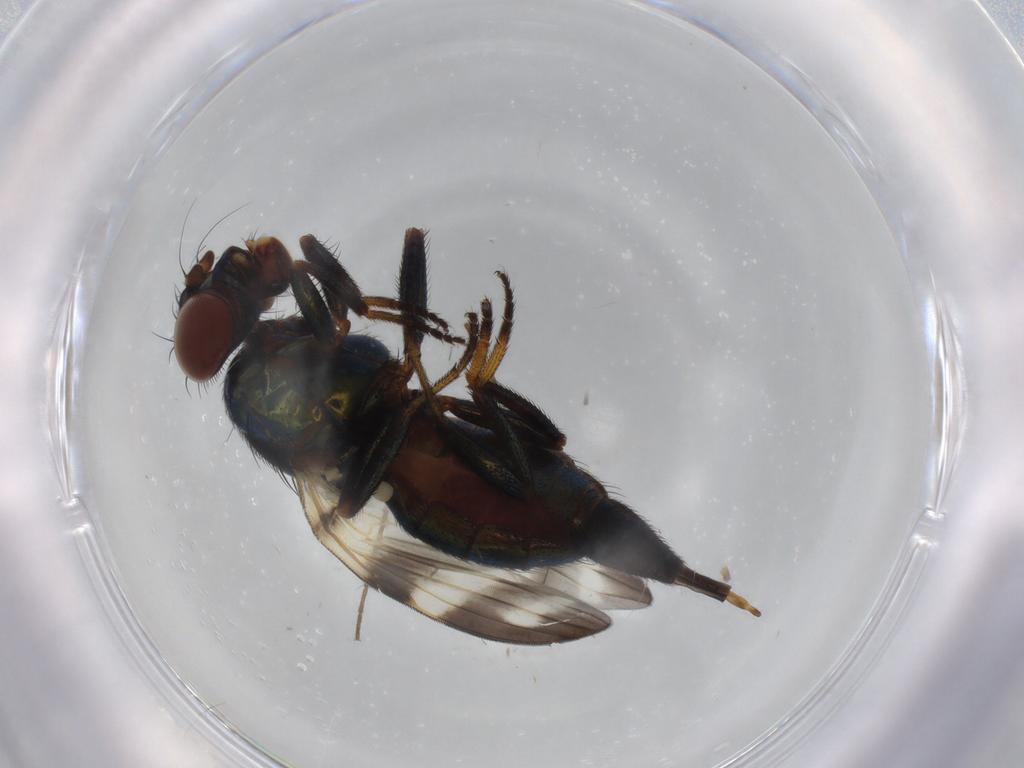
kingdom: Animalia
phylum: Arthropoda
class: Insecta
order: Diptera
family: Ulidiidae
